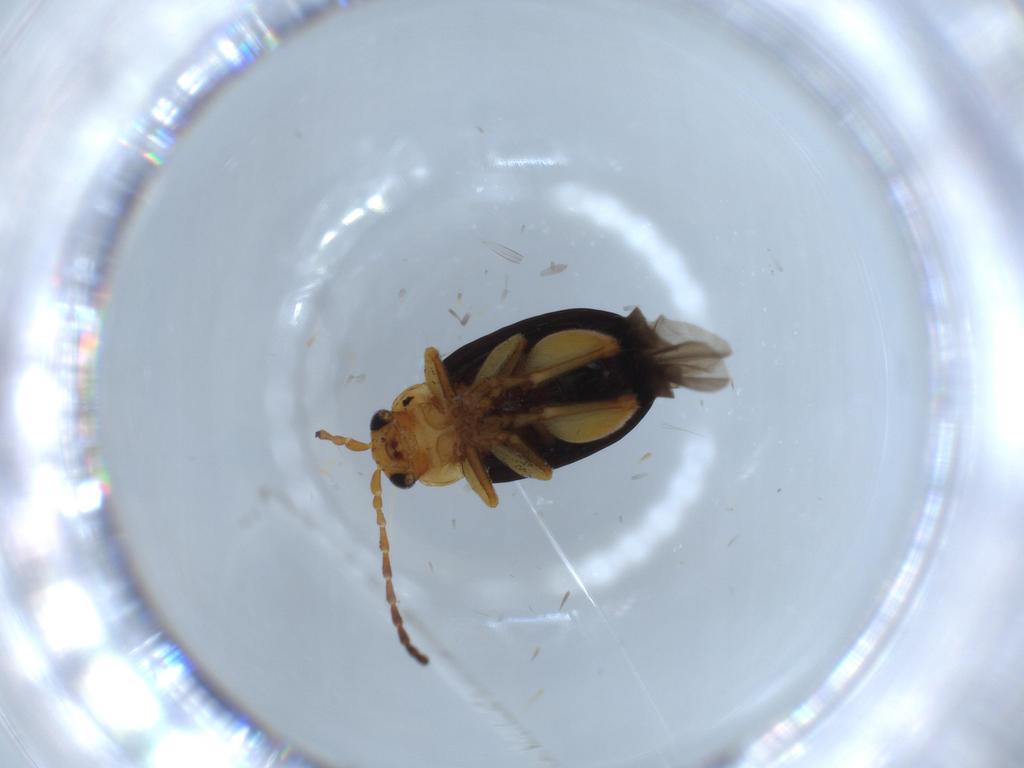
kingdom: Animalia
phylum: Arthropoda
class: Insecta
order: Coleoptera
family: Chrysomelidae
